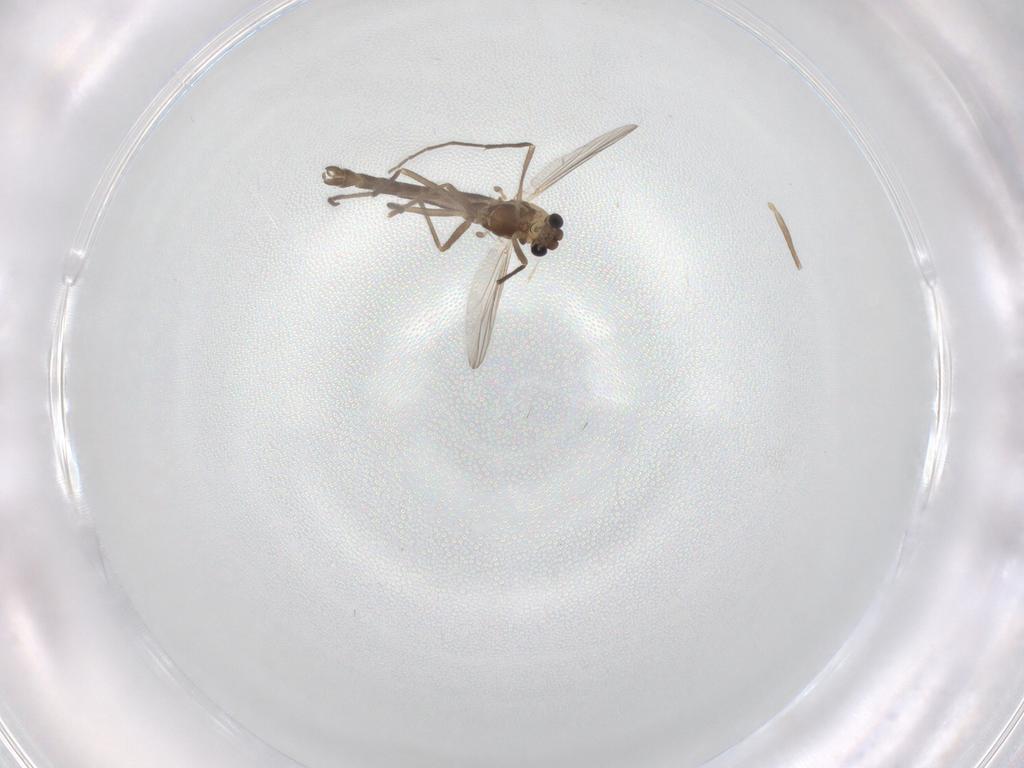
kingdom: Animalia
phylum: Arthropoda
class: Insecta
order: Diptera
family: Chironomidae
